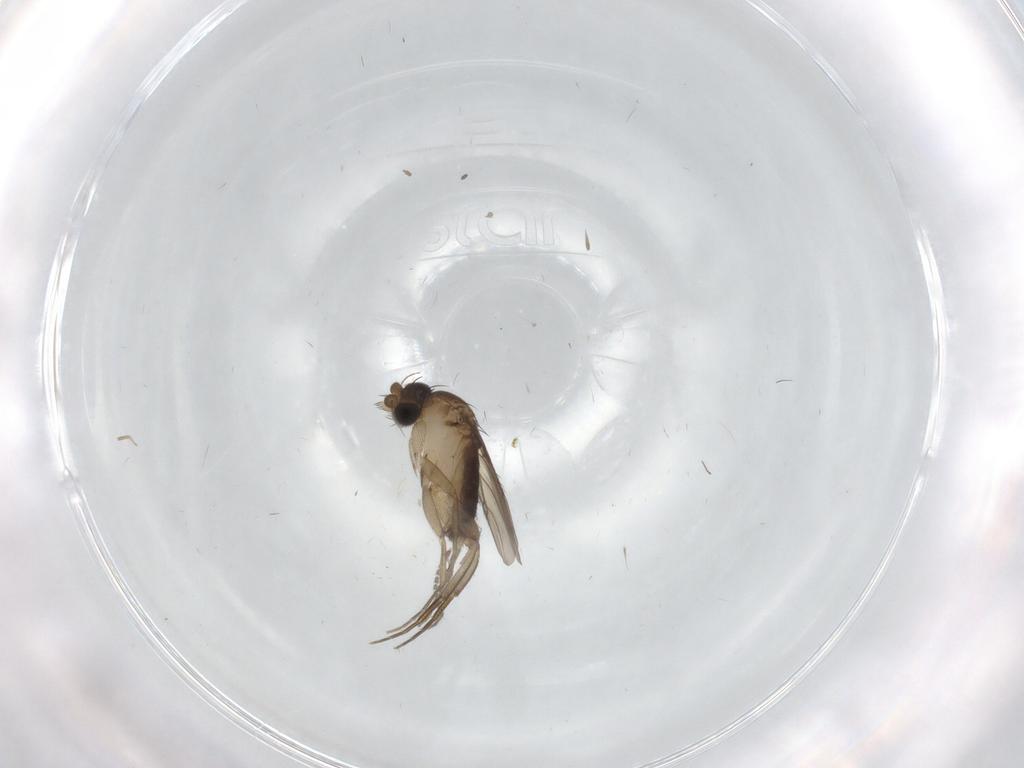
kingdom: Animalia
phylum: Arthropoda
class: Insecta
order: Diptera
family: Phoridae
